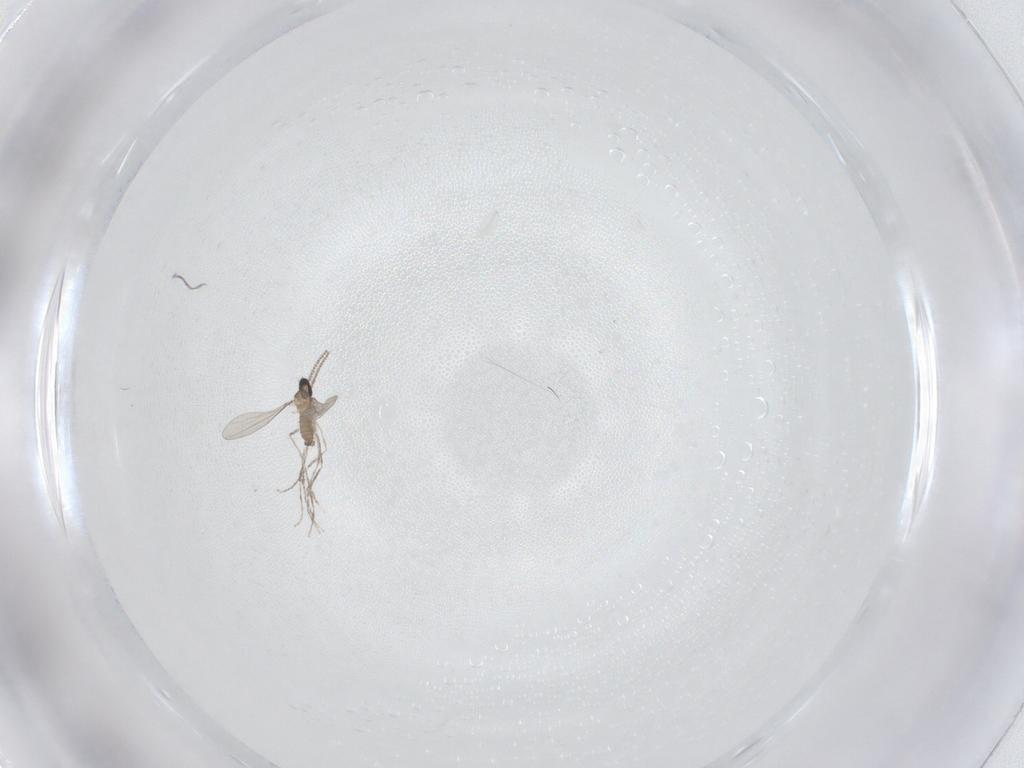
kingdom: Animalia
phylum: Arthropoda
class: Insecta
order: Diptera
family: Cecidomyiidae
